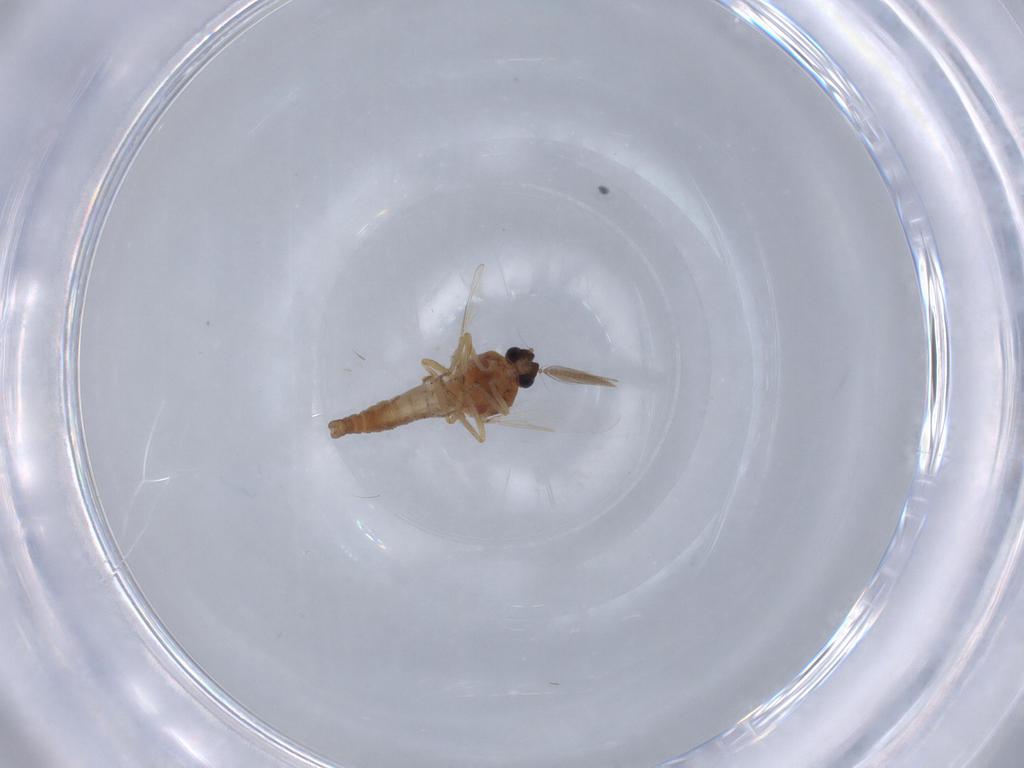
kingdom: Animalia
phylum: Arthropoda
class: Insecta
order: Diptera
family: Ceratopogonidae
